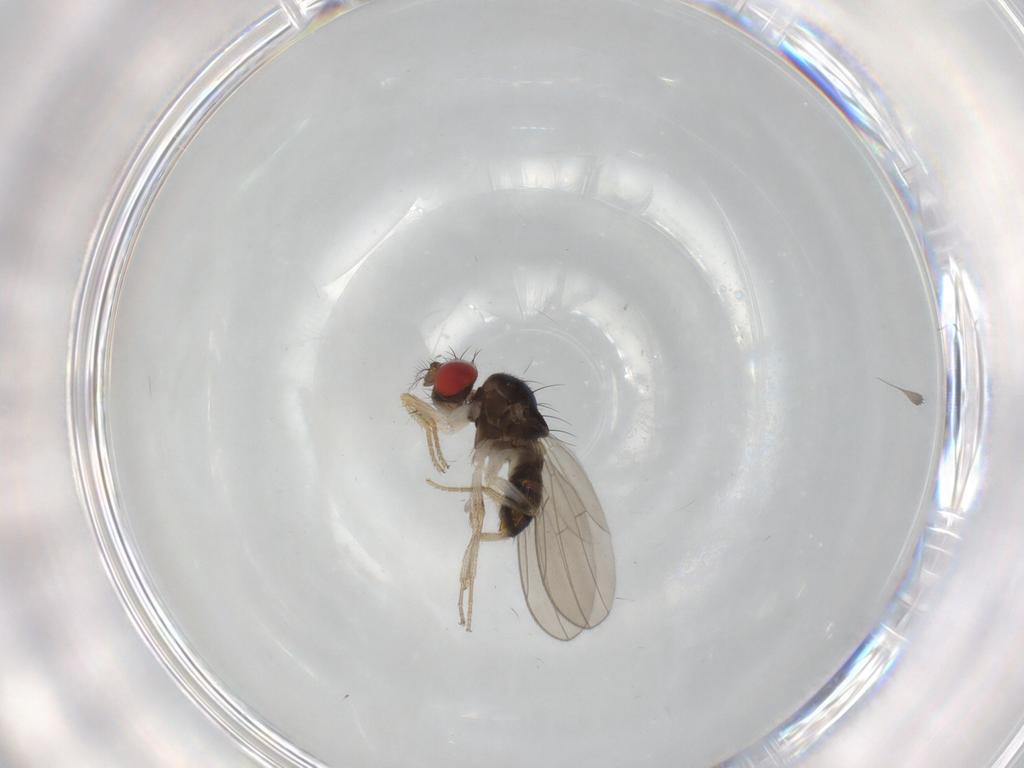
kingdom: Animalia
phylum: Arthropoda
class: Insecta
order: Diptera
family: Drosophilidae
